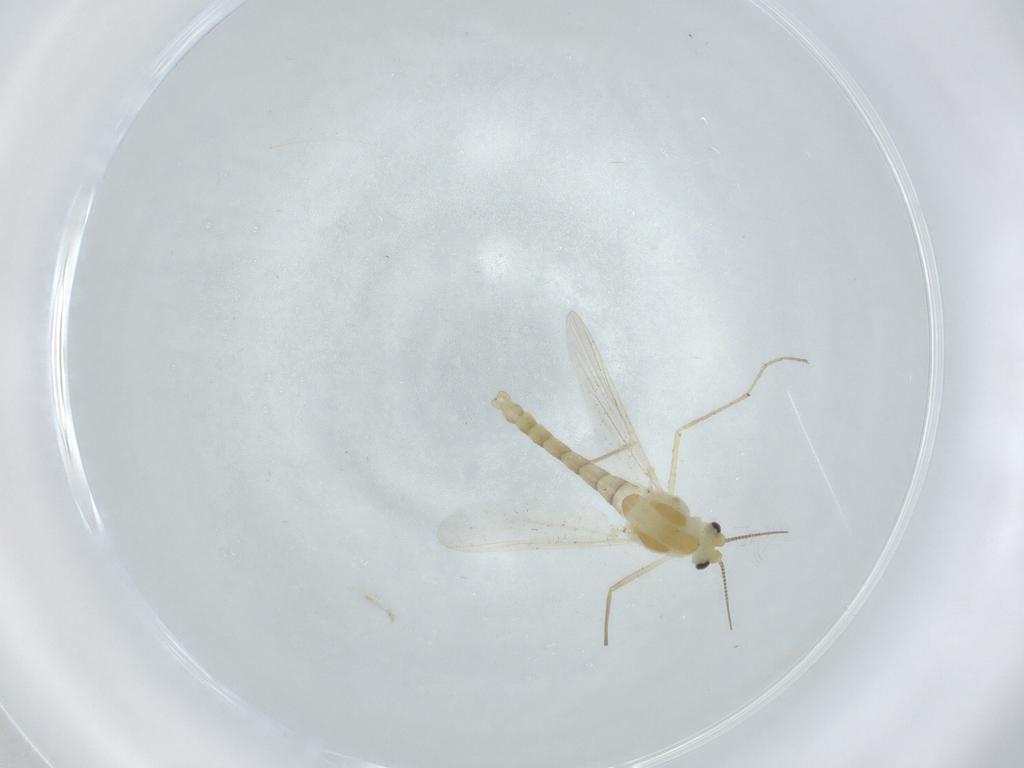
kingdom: Animalia
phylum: Arthropoda
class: Insecta
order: Diptera
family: Chironomidae
